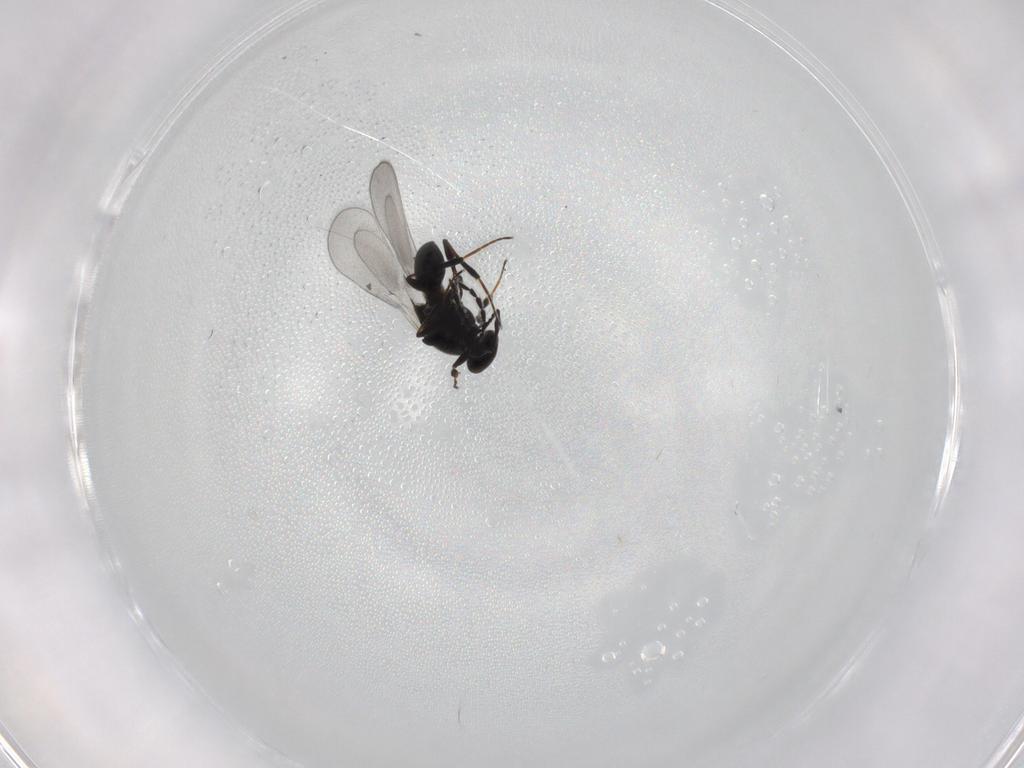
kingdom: Animalia
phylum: Arthropoda
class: Insecta
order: Hymenoptera
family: Platygastridae
